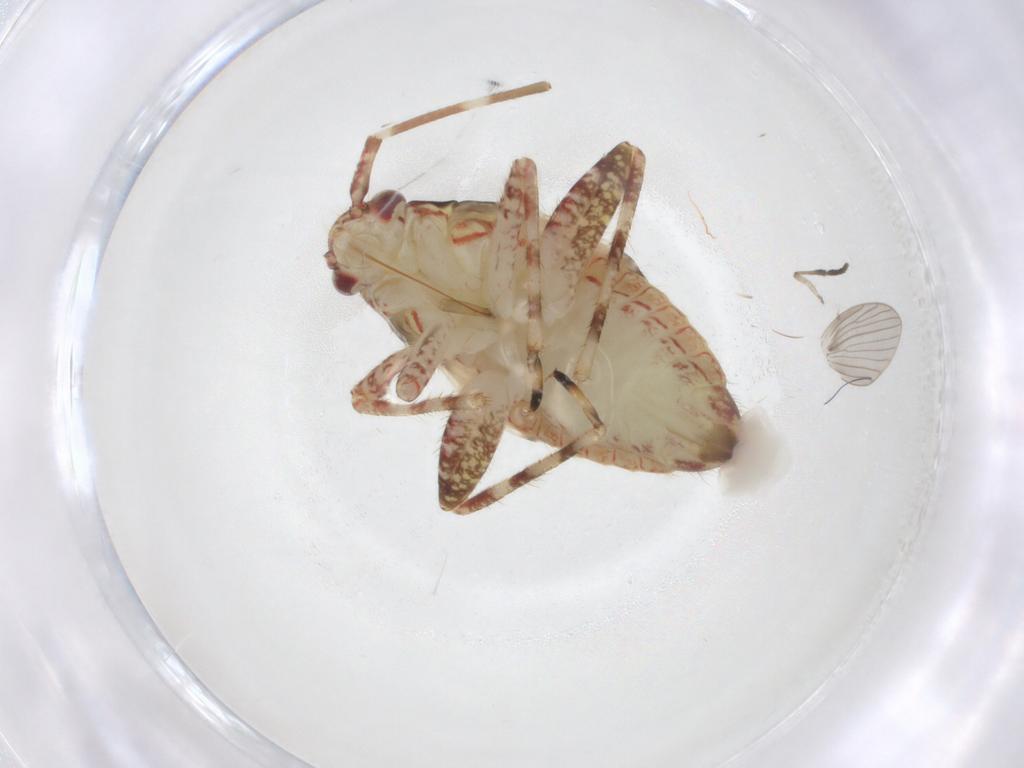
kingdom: Animalia
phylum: Arthropoda
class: Insecta
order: Hemiptera
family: Miridae
